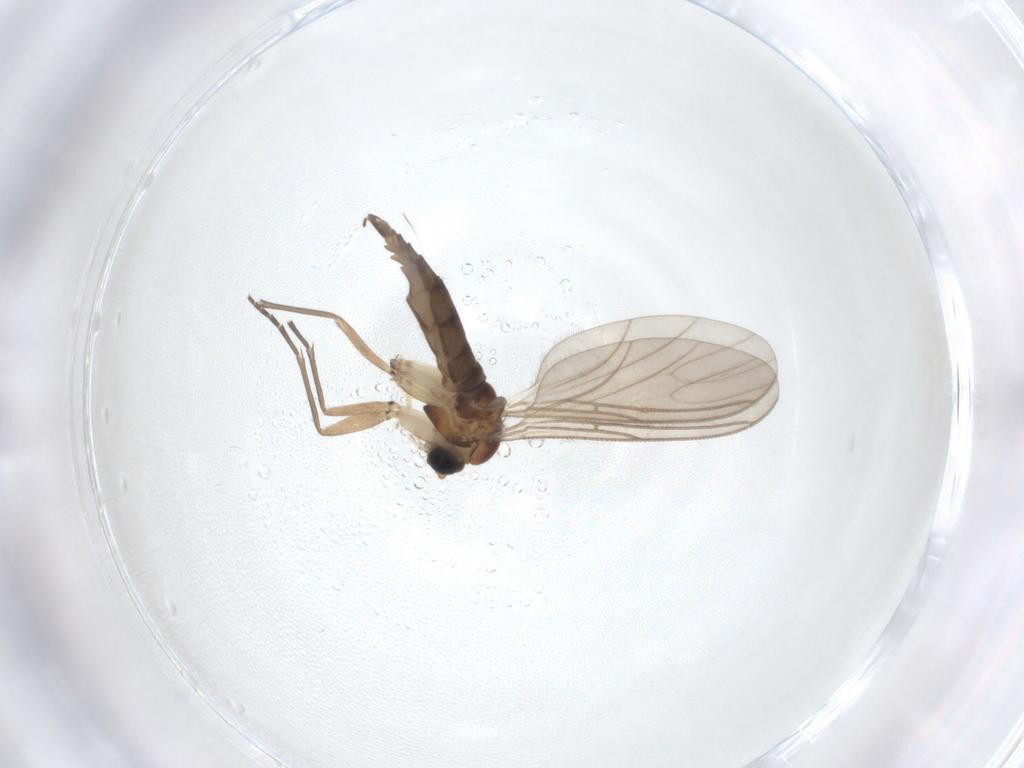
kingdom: Animalia
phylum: Arthropoda
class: Insecta
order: Diptera
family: Sciaridae
